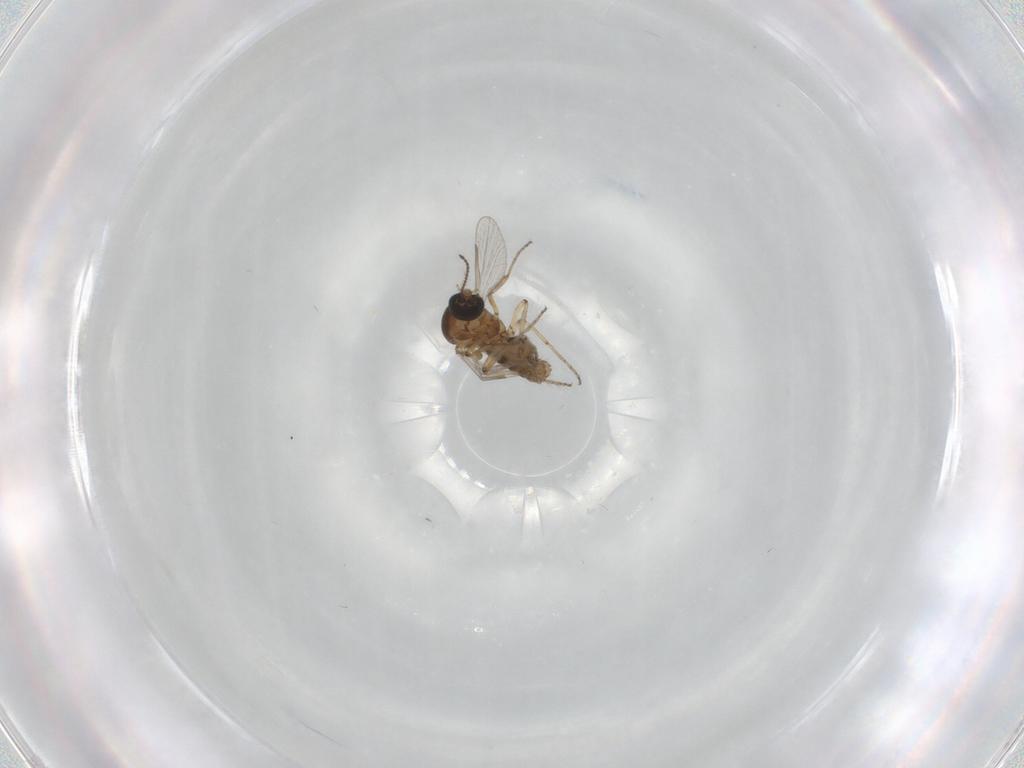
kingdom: Animalia
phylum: Arthropoda
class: Insecta
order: Diptera
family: Ceratopogonidae
